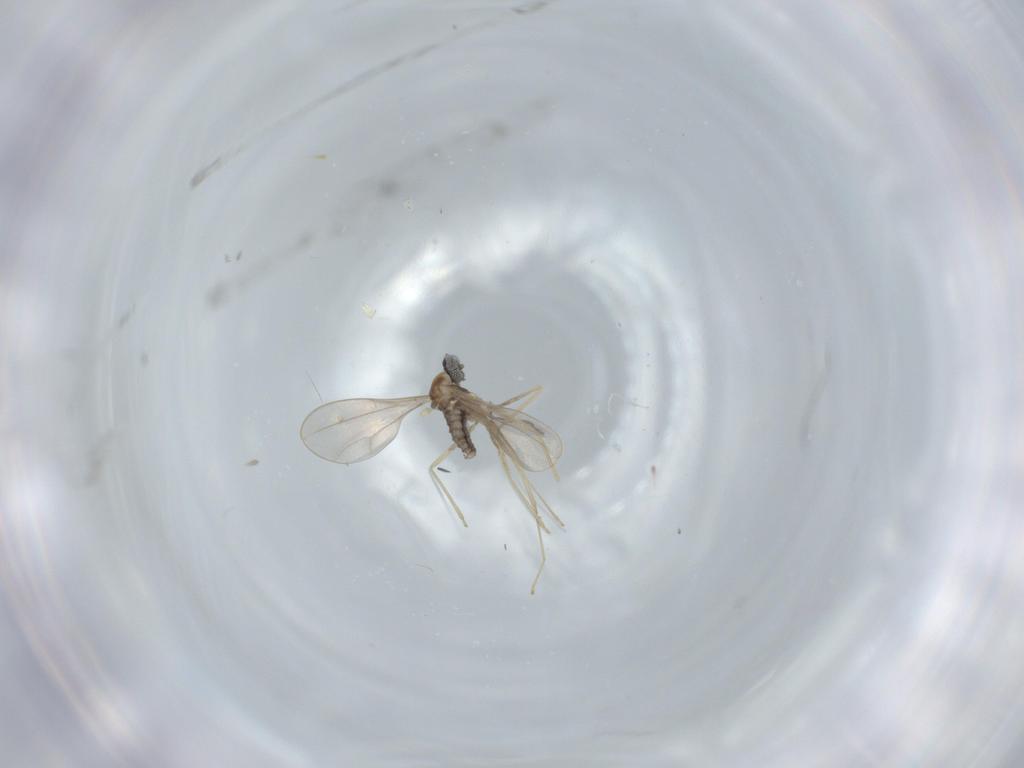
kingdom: Animalia
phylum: Arthropoda
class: Insecta
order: Diptera
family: Cecidomyiidae
